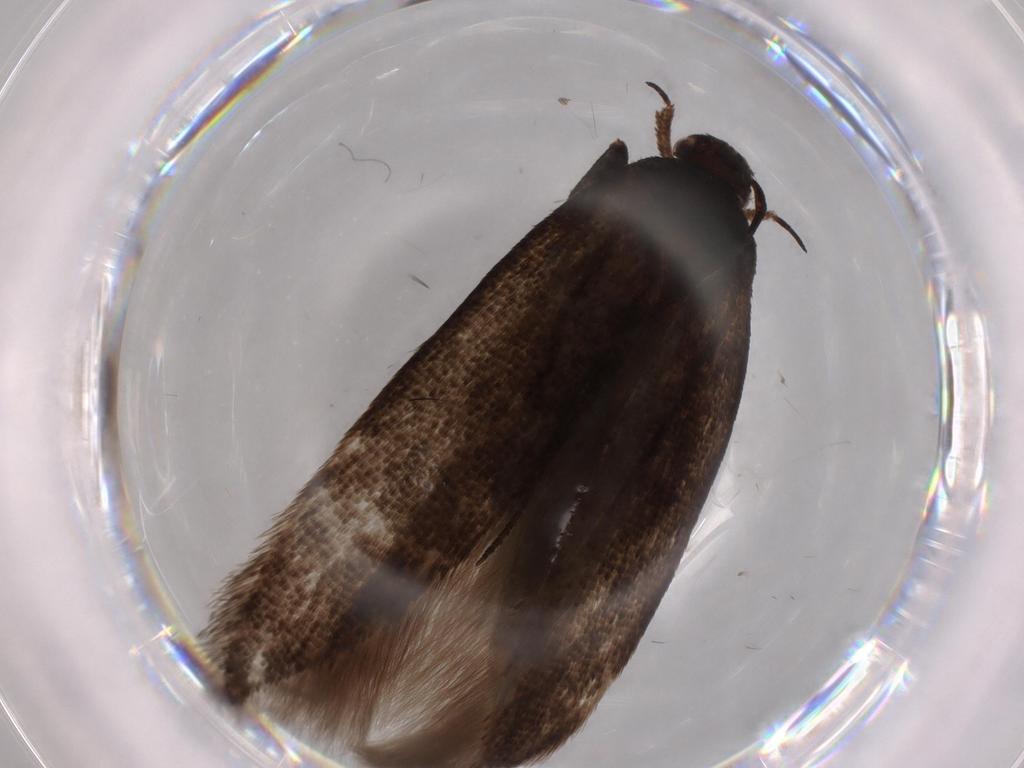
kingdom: Animalia
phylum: Arthropoda
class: Insecta
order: Lepidoptera
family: Gelechiidae
